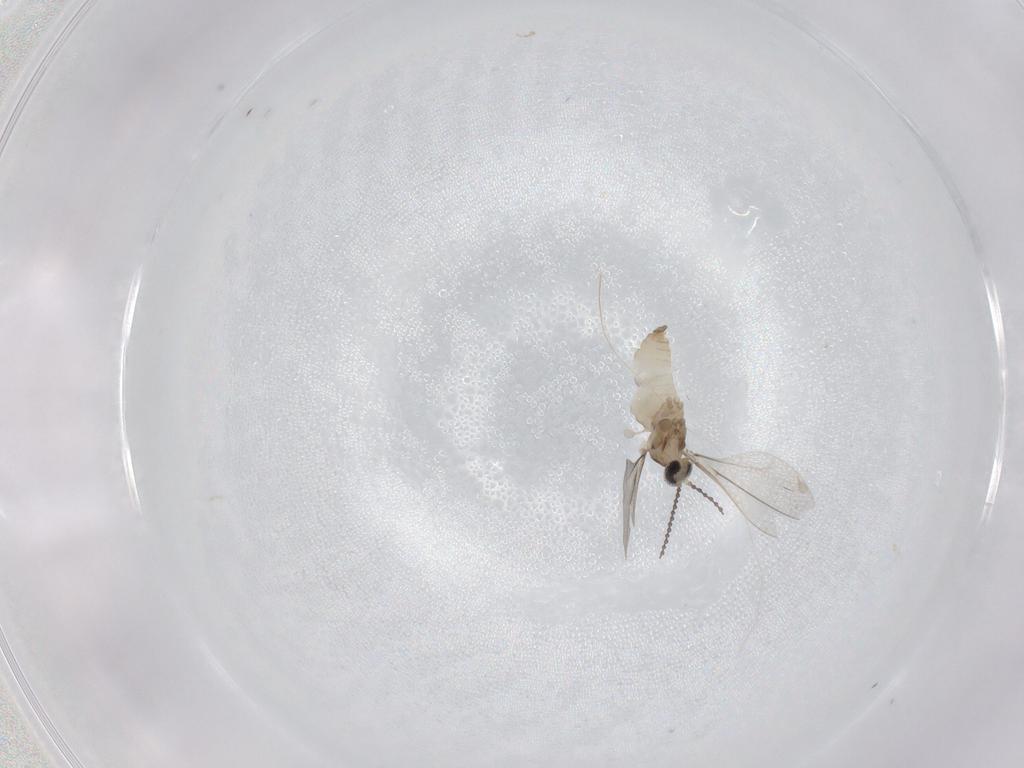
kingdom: Animalia
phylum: Arthropoda
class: Insecta
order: Diptera
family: Cecidomyiidae
